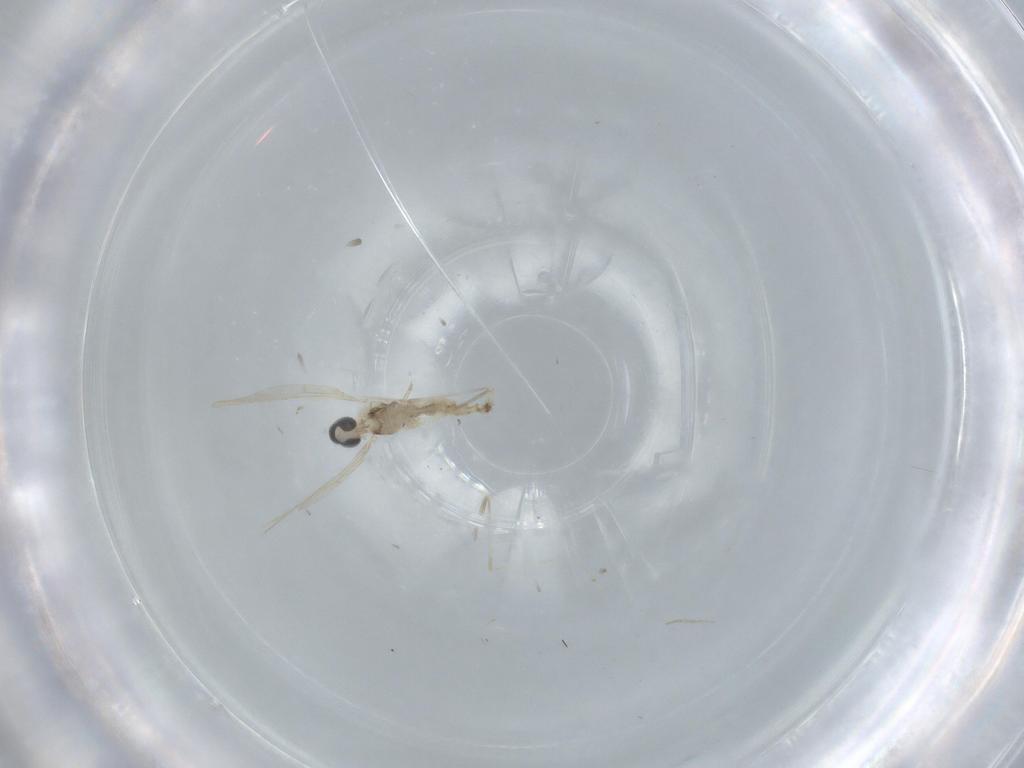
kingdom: Animalia
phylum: Arthropoda
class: Insecta
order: Diptera
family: Cecidomyiidae
